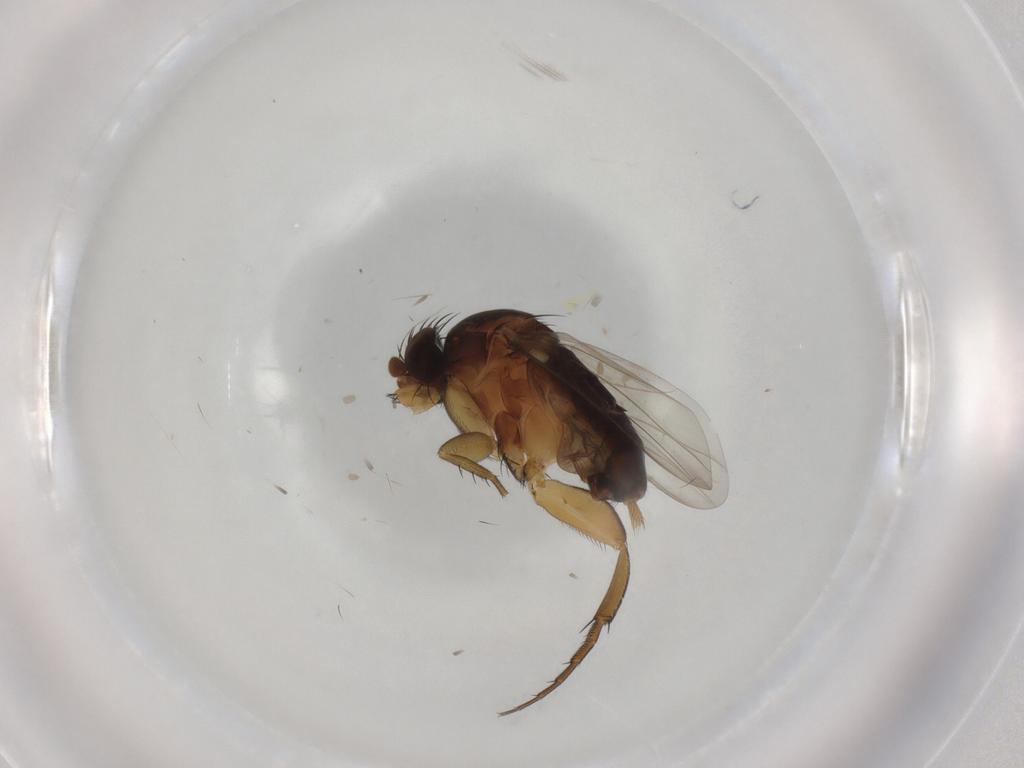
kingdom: Animalia
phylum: Arthropoda
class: Insecta
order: Diptera
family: Phoridae
